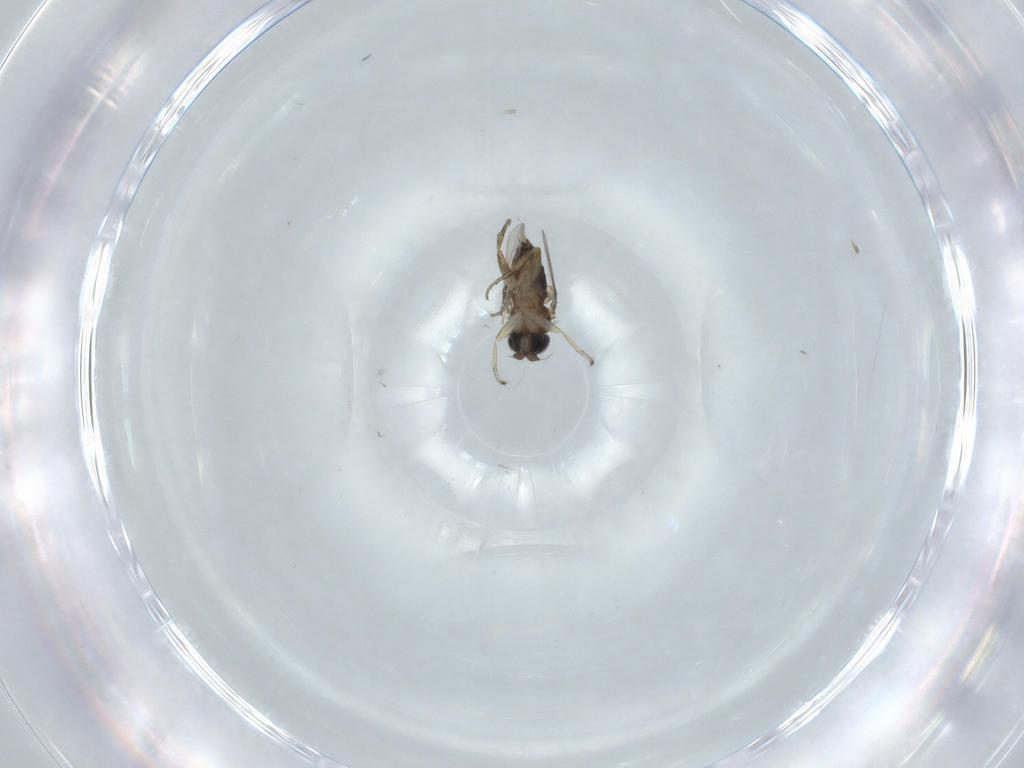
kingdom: Animalia
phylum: Arthropoda
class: Insecta
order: Diptera
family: Phoridae
